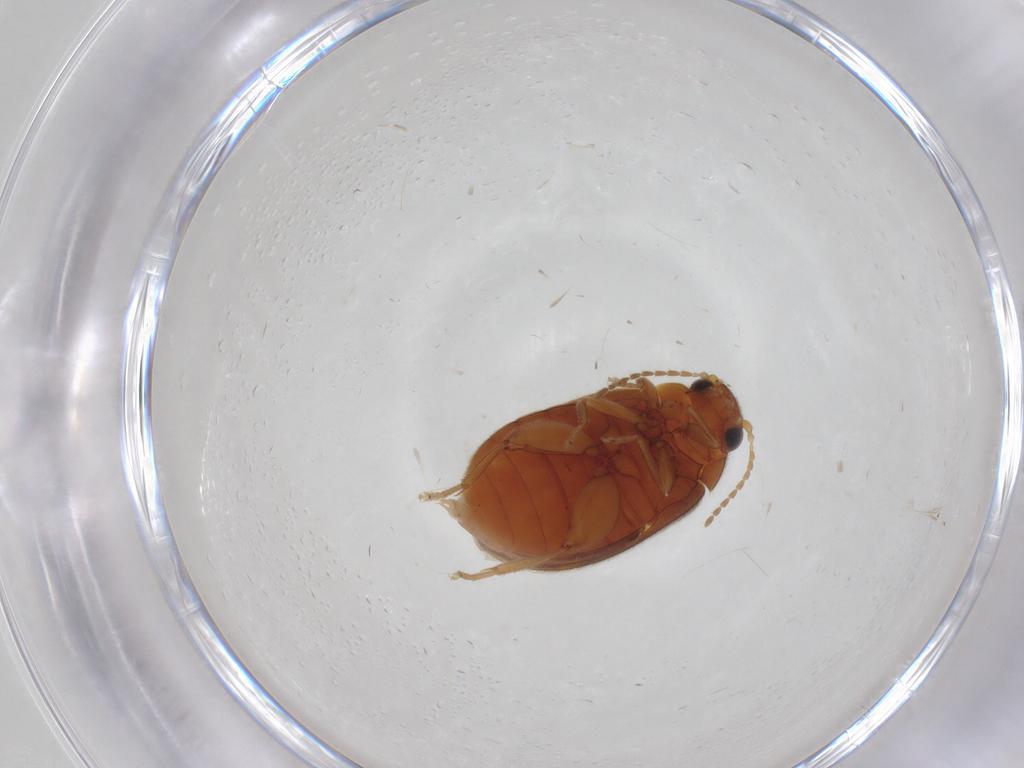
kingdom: Animalia
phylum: Arthropoda
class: Insecta
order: Coleoptera
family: Scirtidae
